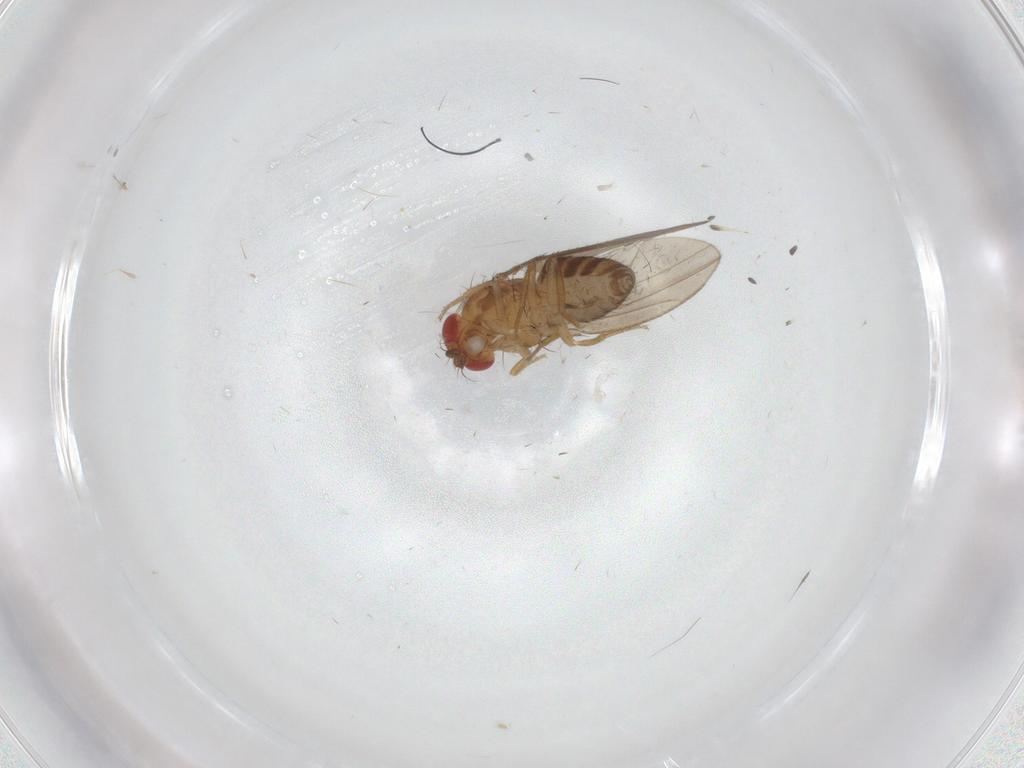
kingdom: Animalia
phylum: Arthropoda
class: Insecta
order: Diptera
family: Drosophilidae
